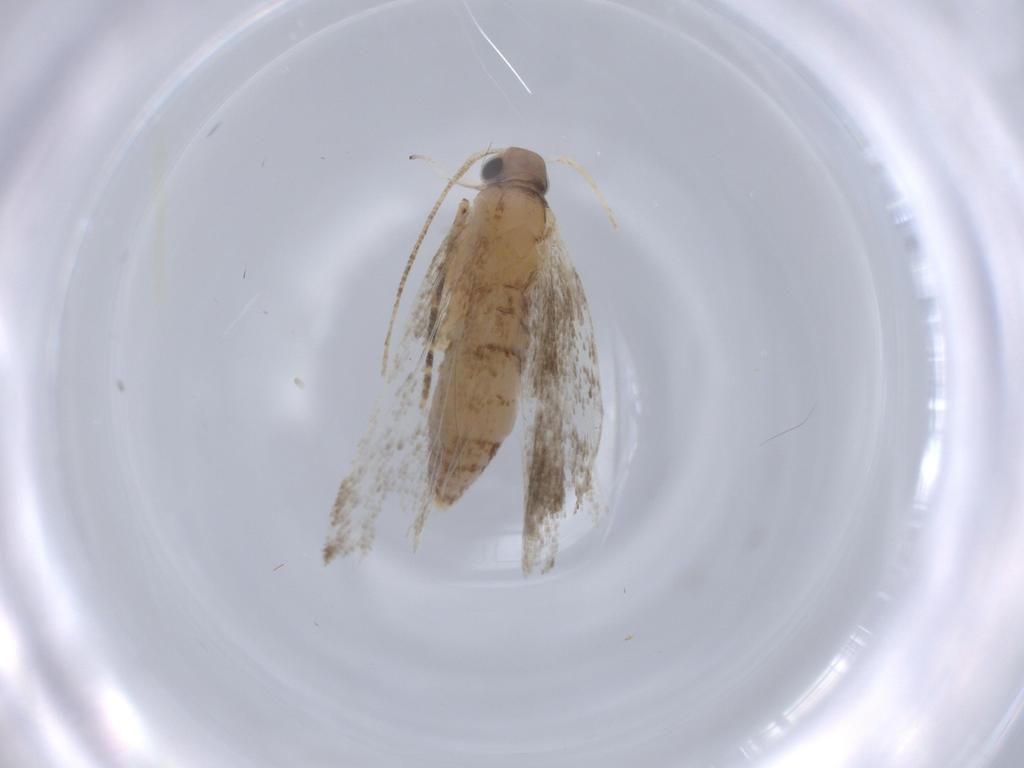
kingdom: Animalia
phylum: Arthropoda
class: Insecta
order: Lepidoptera
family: Erebidae
